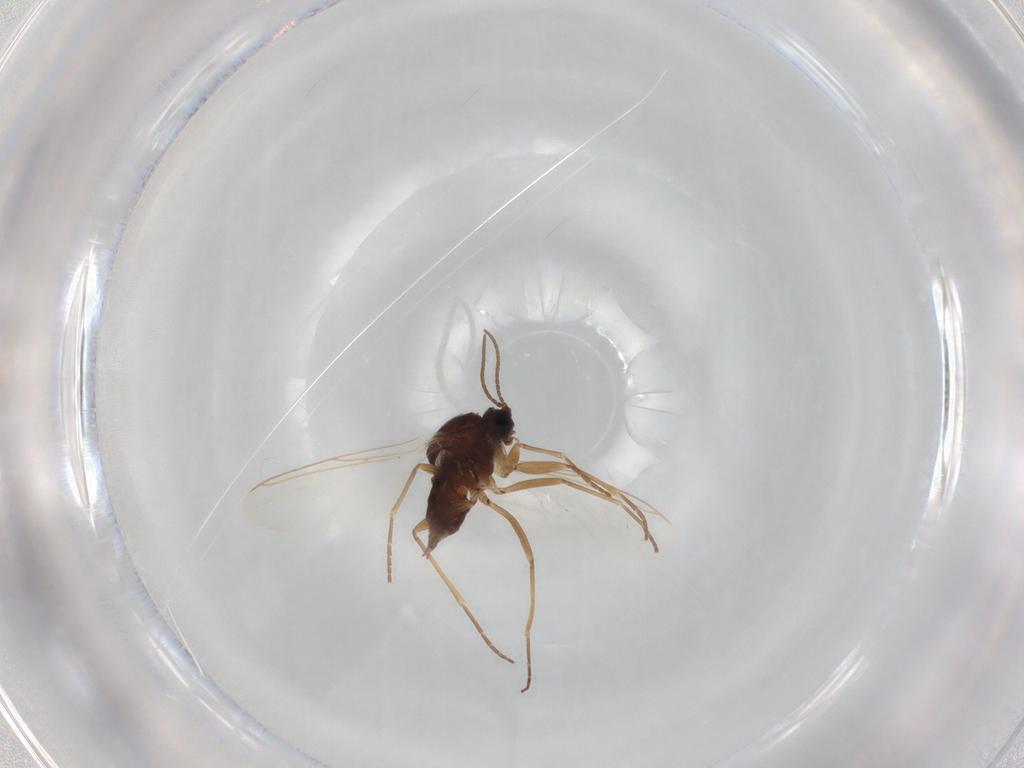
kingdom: Animalia
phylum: Arthropoda
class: Insecta
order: Diptera
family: Sciaridae
